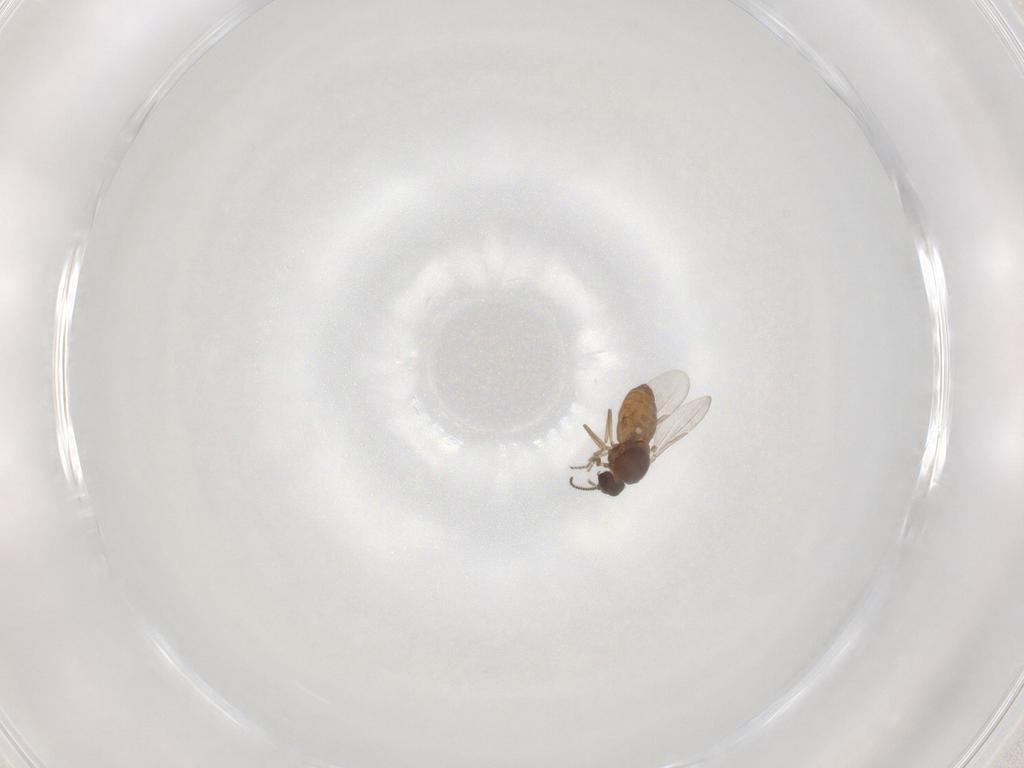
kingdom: Animalia
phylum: Arthropoda
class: Insecta
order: Diptera
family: Ceratopogonidae
